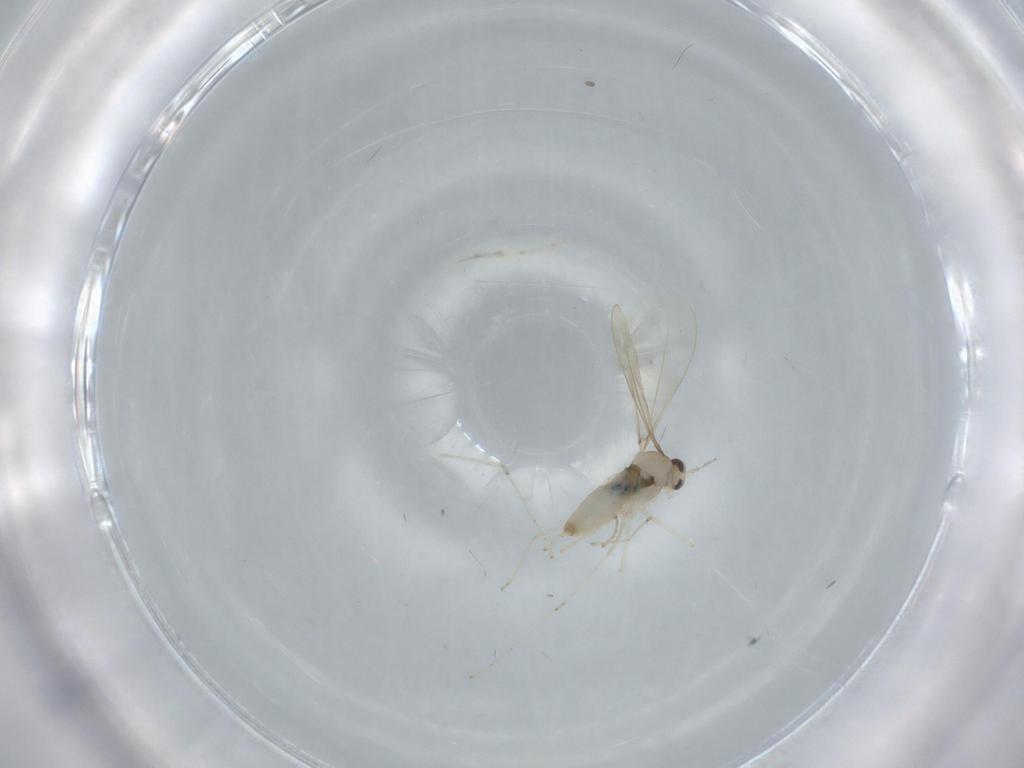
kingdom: Animalia
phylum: Arthropoda
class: Insecta
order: Diptera
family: Cecidomyiidae
